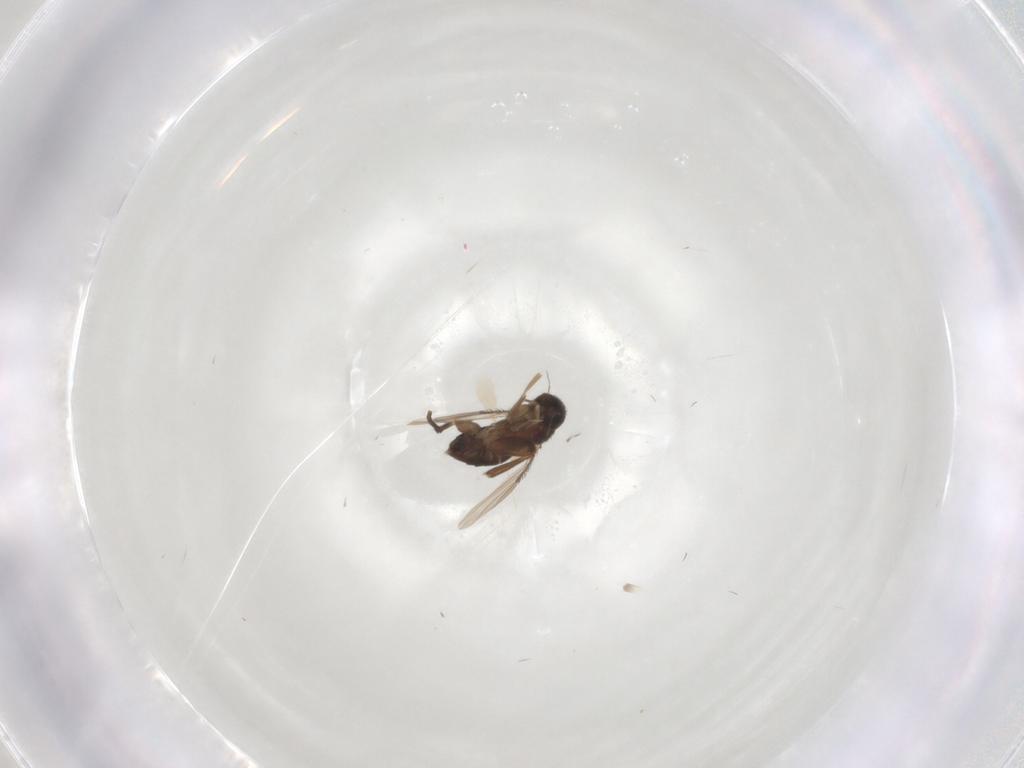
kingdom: Animalia
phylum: Arthropoda
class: Insecta
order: Diptera
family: Phoridae
